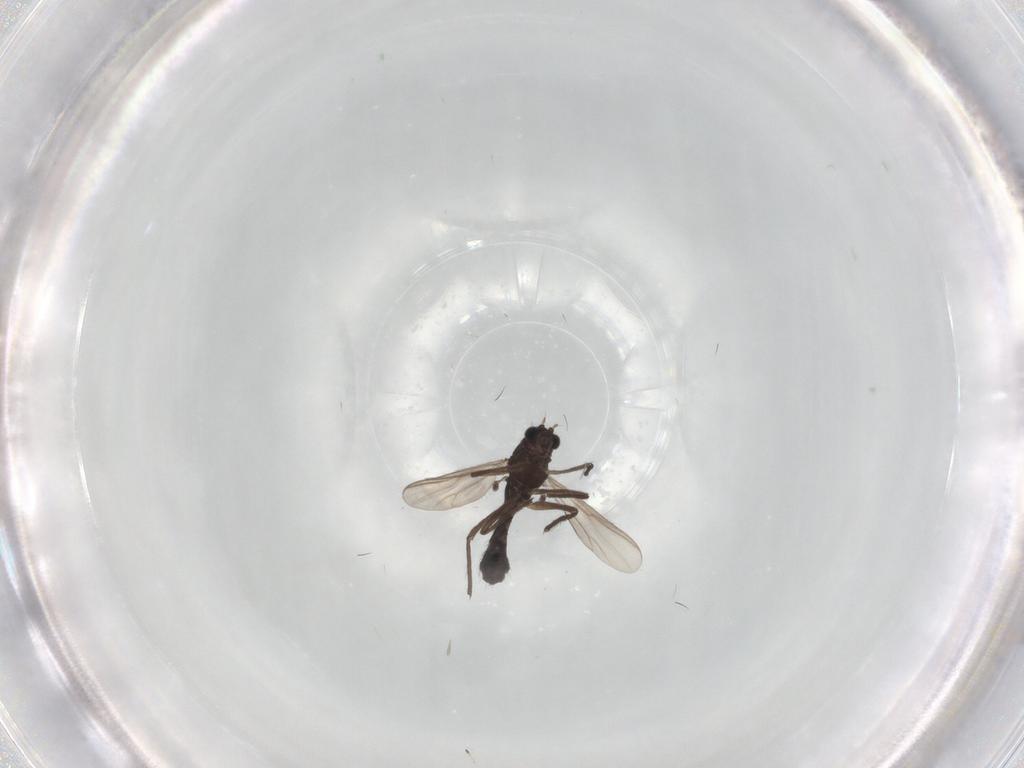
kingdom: Animalia
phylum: Arthropoda
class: Insecta
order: Diptera
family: Chironomidae
